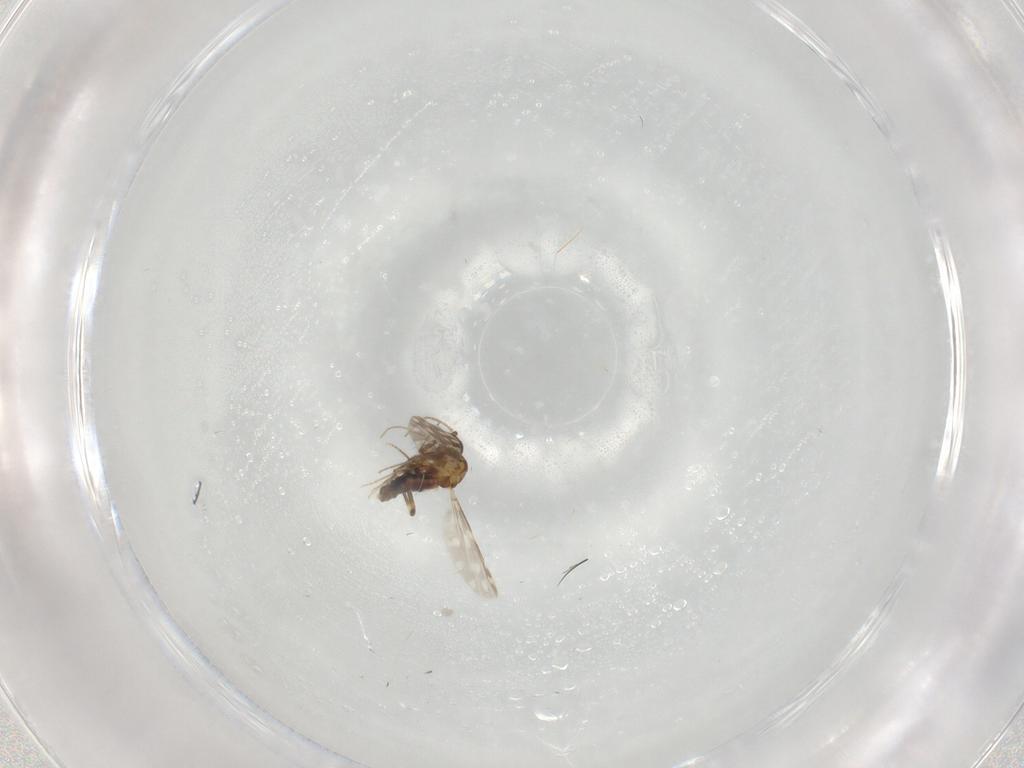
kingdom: Animalia
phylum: Arthropoda
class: Insecta
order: Diptera
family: Ceratopogonidae
